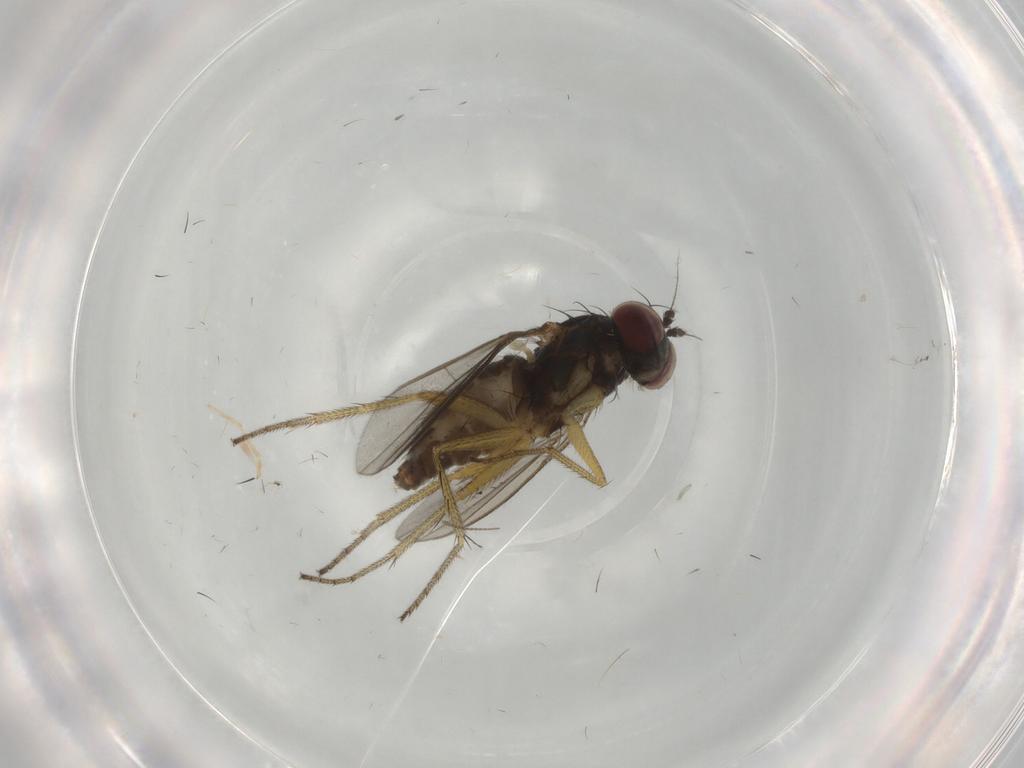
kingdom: Animalia
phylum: Arthropoda
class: Insecta
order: Diptera
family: Dolichopodidae
